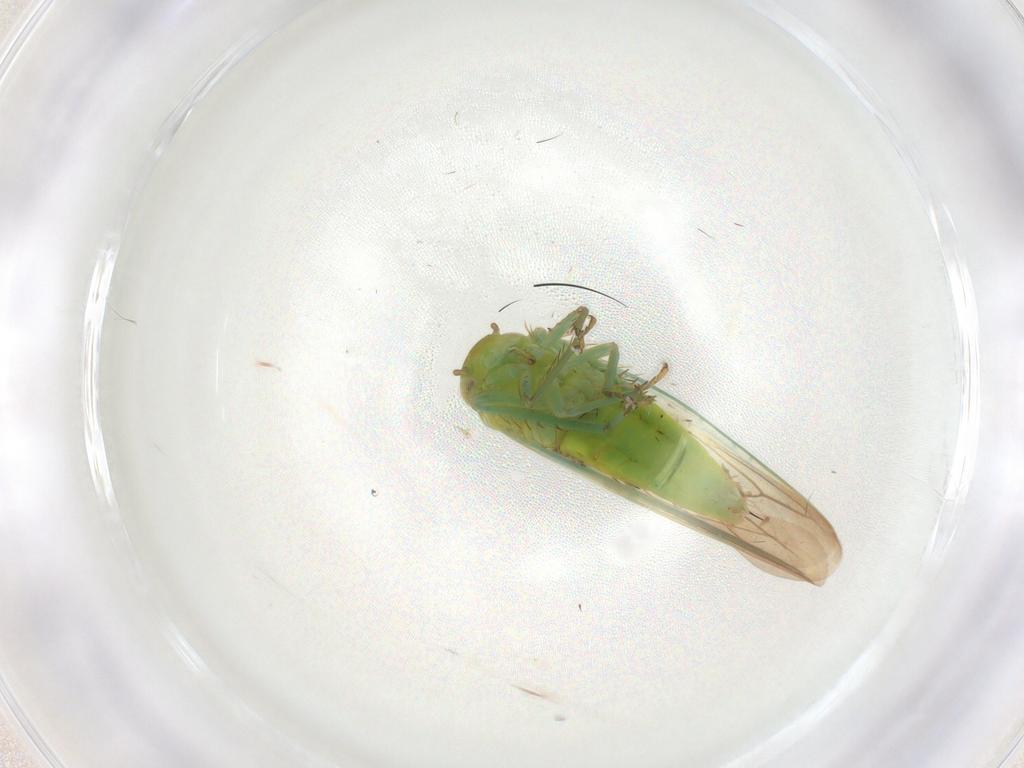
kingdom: Animalia
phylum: Arthropoda
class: Insecta
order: Hemiptera
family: Cicadellidae
